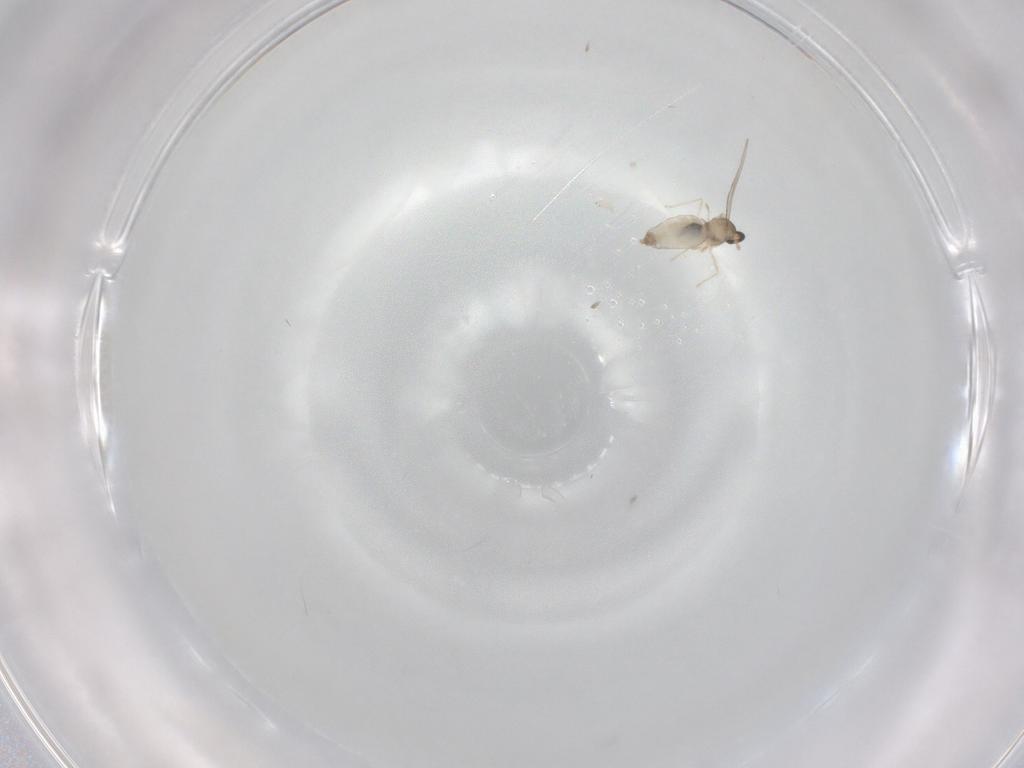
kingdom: Animalia
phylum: Arthropoda
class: Insecta
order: Diptera
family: Cecidomyiidae
